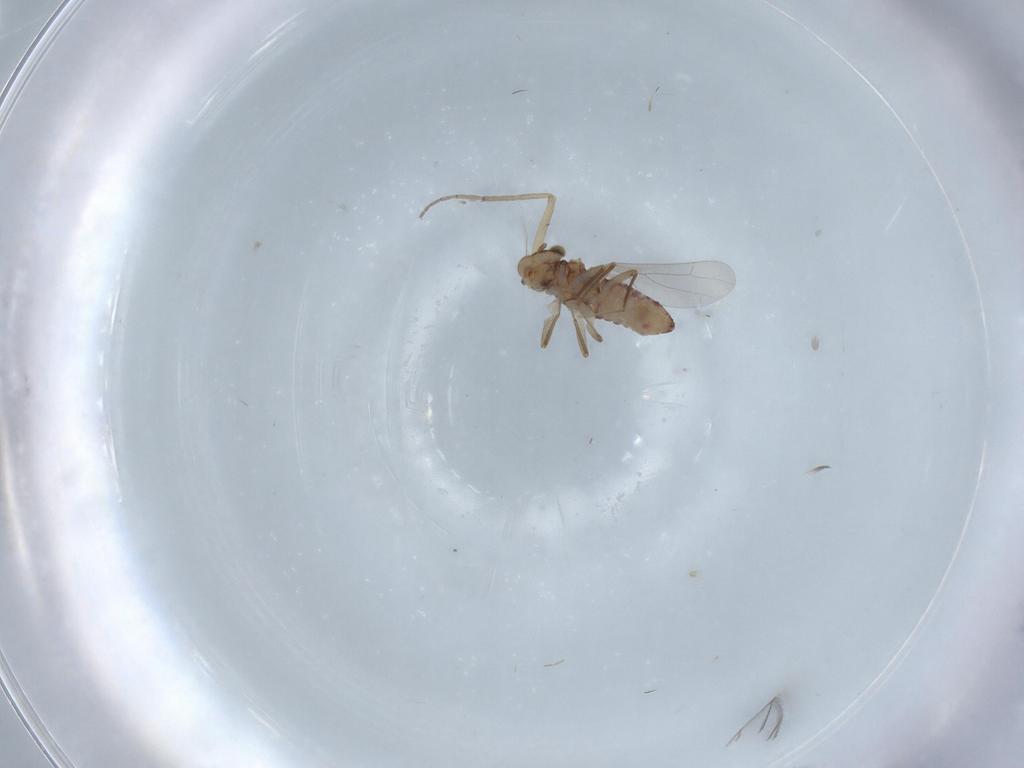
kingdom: Animalia
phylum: Arthropoda
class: Insecta
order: Psocodea
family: Lepidopsocidae
